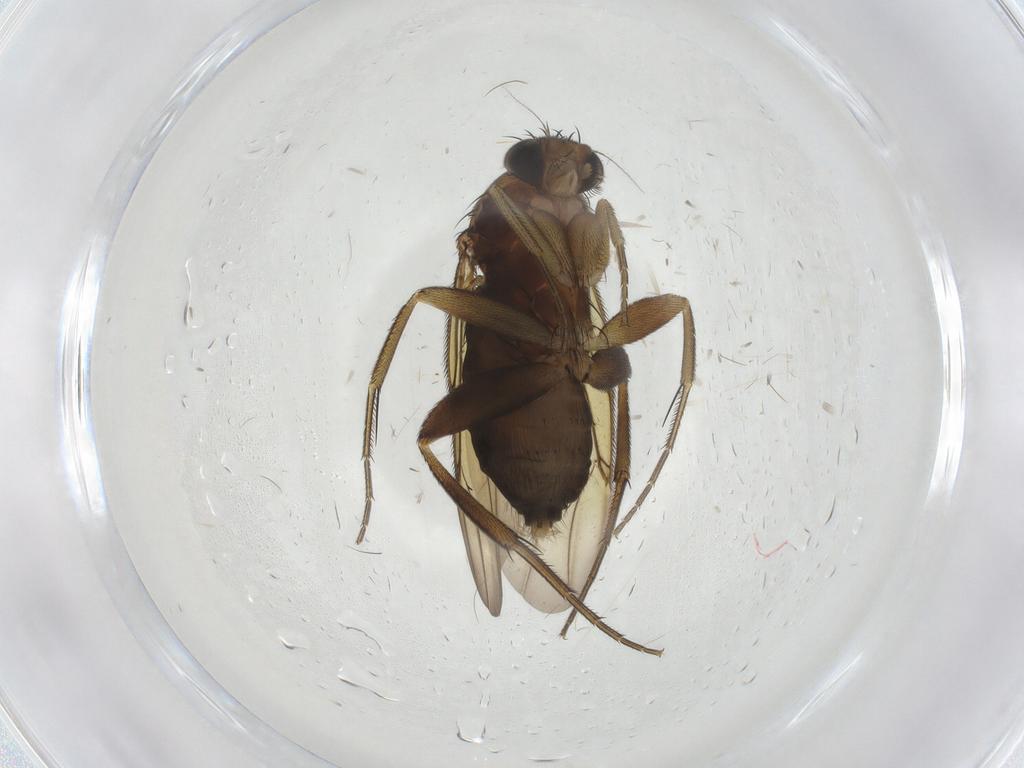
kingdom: Animalia
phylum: Arthropoda
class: Insecta
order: Diptera
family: Phoridae
